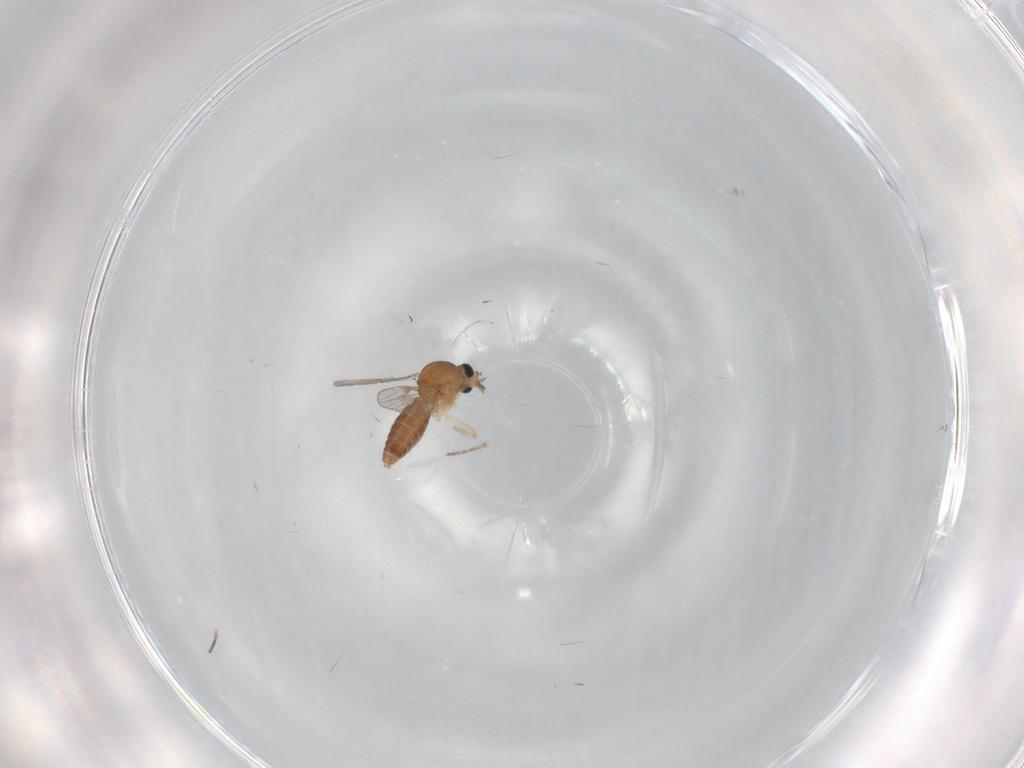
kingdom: Animalia
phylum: Arthropoda
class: Insecta
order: Diptera
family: Ceratopogonidae
